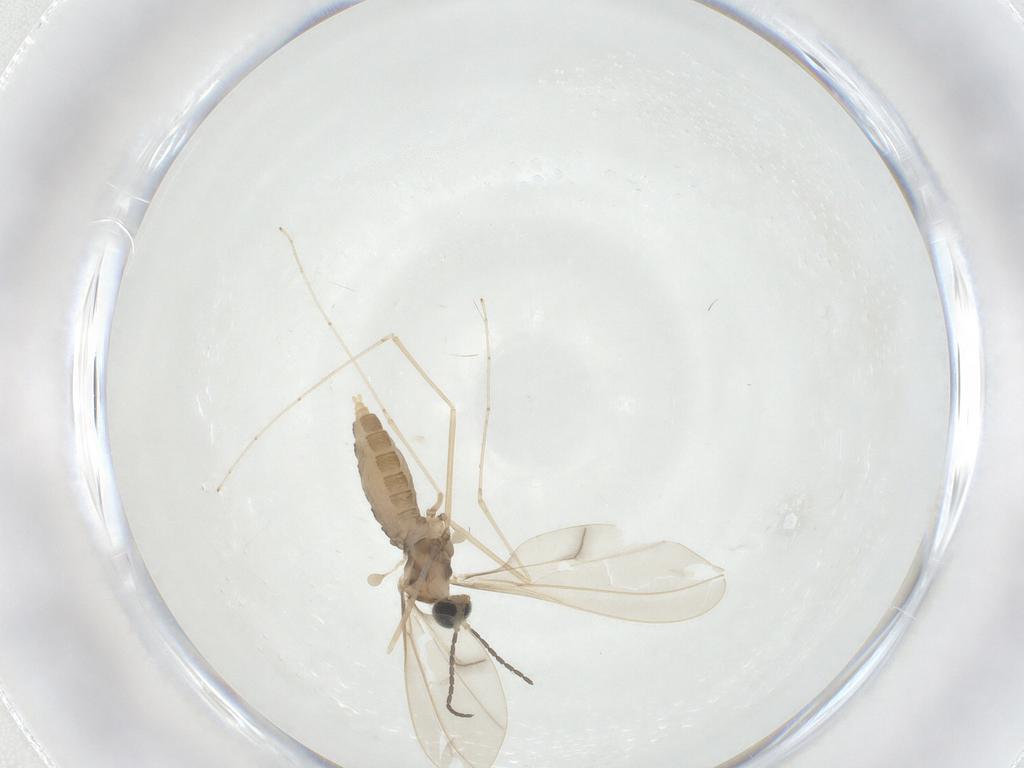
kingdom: Animalia
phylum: Arthropoda
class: Insecta
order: Diptera
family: Cecidomyiidae
